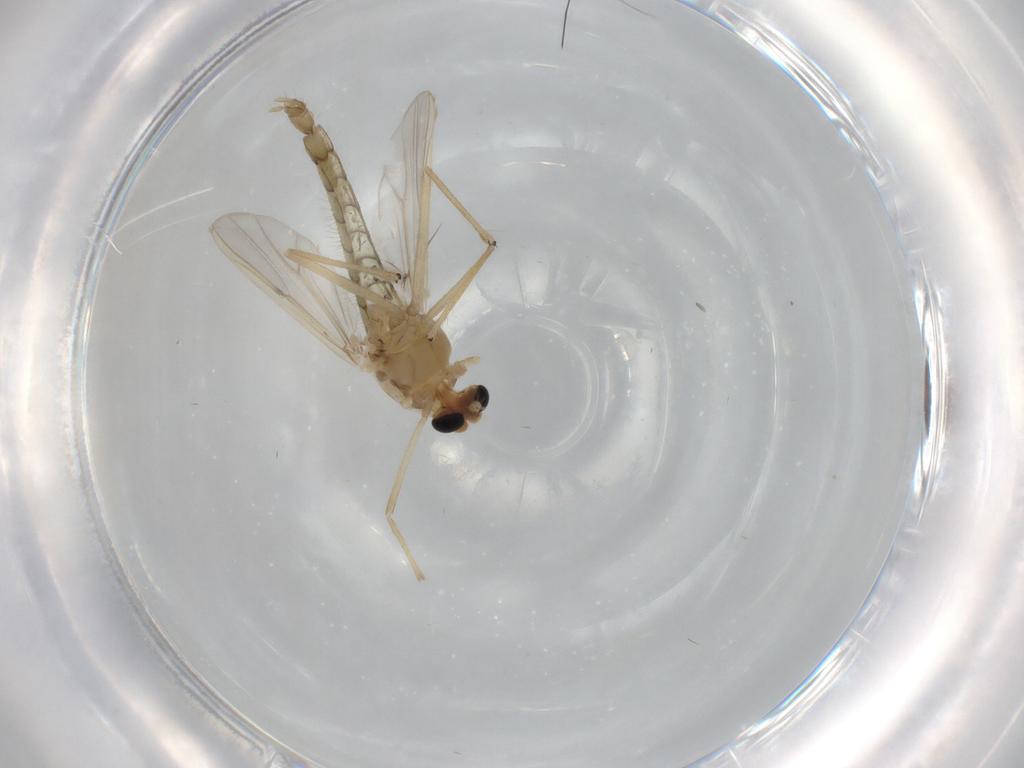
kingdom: Animalia
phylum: Arthropoda
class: Insecta
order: Diptera
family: Chironomidae
